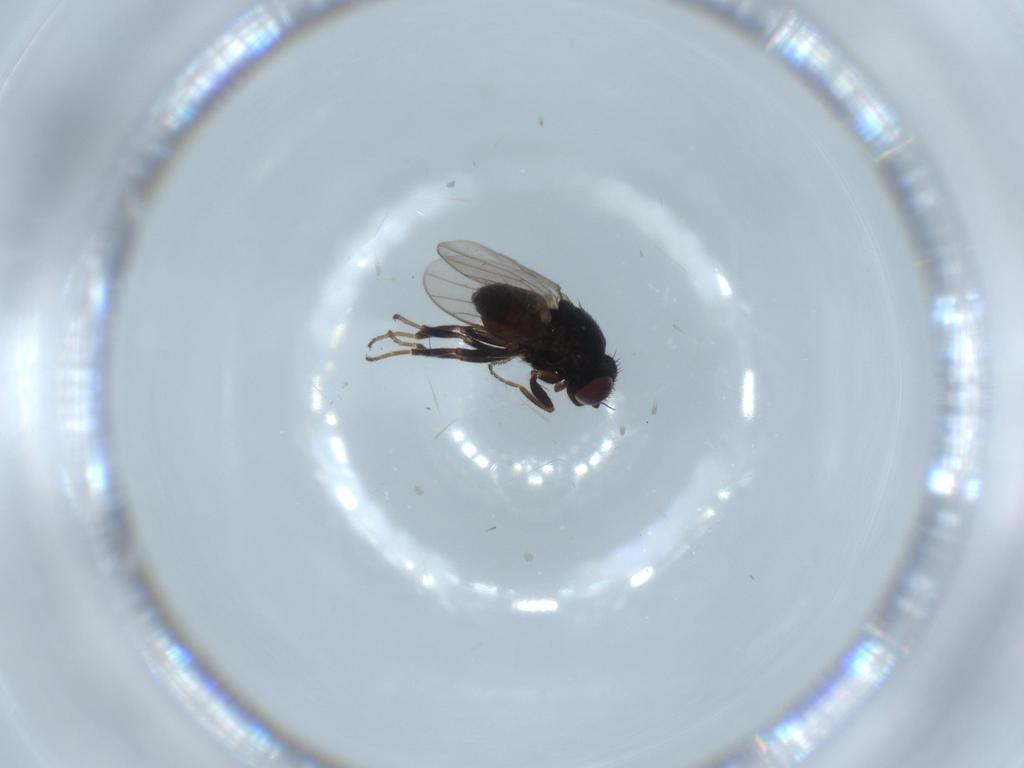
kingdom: Animalia
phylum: Arthropoda
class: Insecta
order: Diptera
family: Chloropidae
